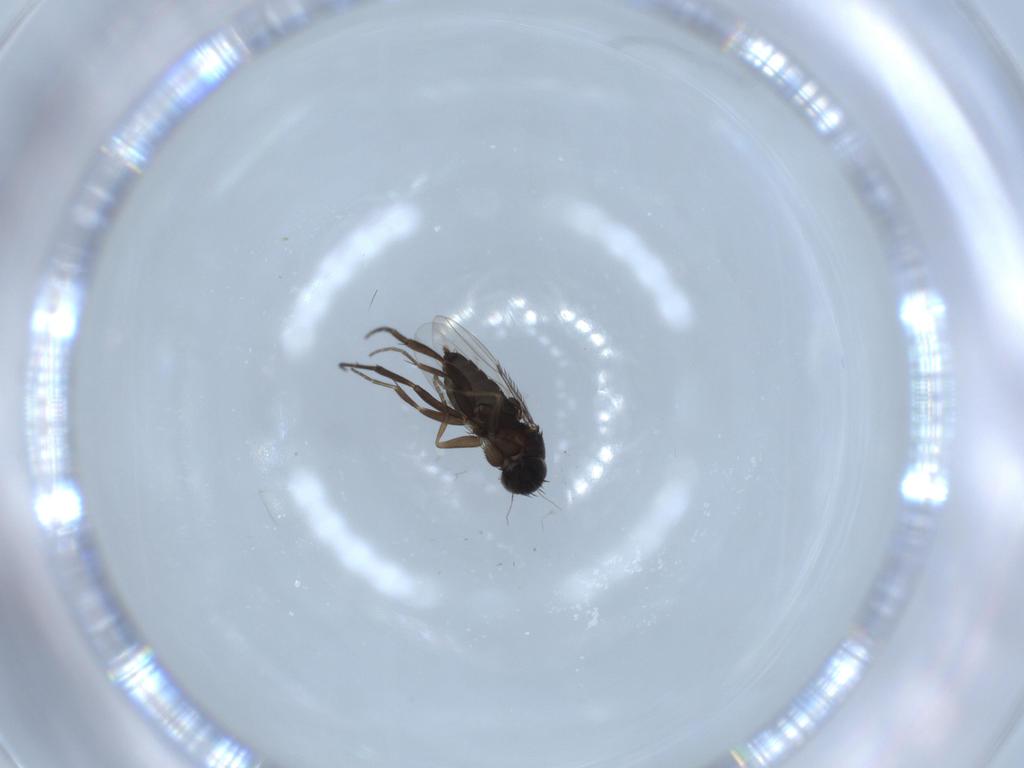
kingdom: Animalia
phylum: Arthropoda
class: Insecta
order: Diptera
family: Phoridae
